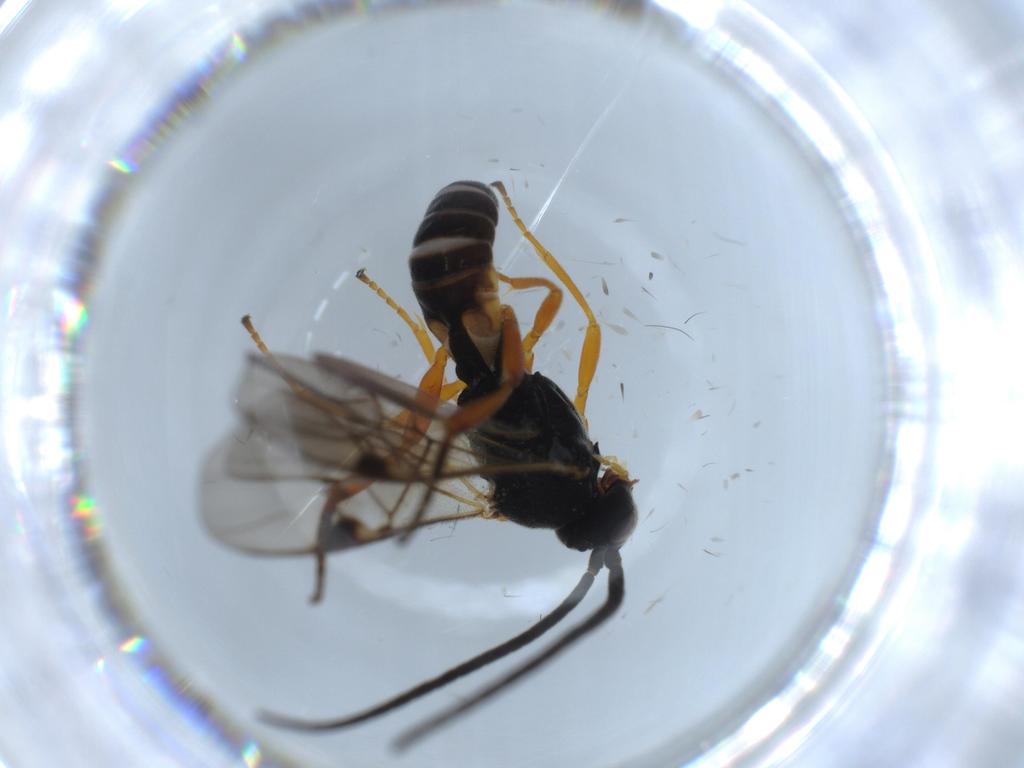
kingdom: Animalia
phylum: Arthropoda
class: Insecta
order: Hymenoptera
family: Braconidae
